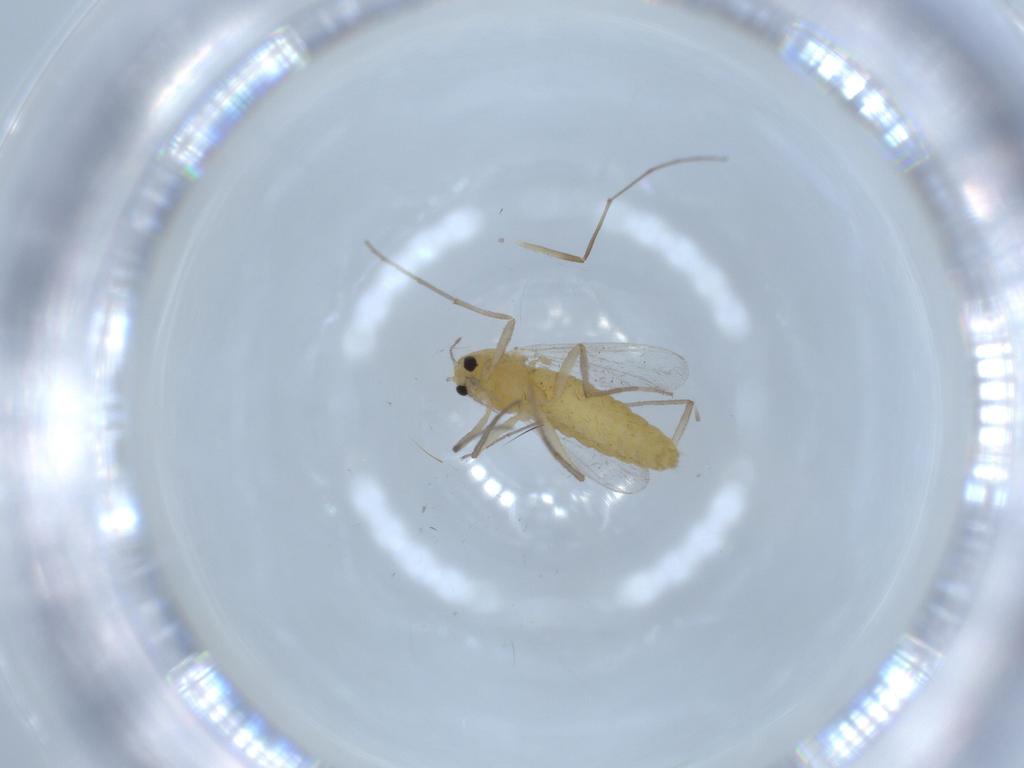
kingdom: Animalia
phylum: Arthropoda
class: Insecta
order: Diptera
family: Chironomidae
